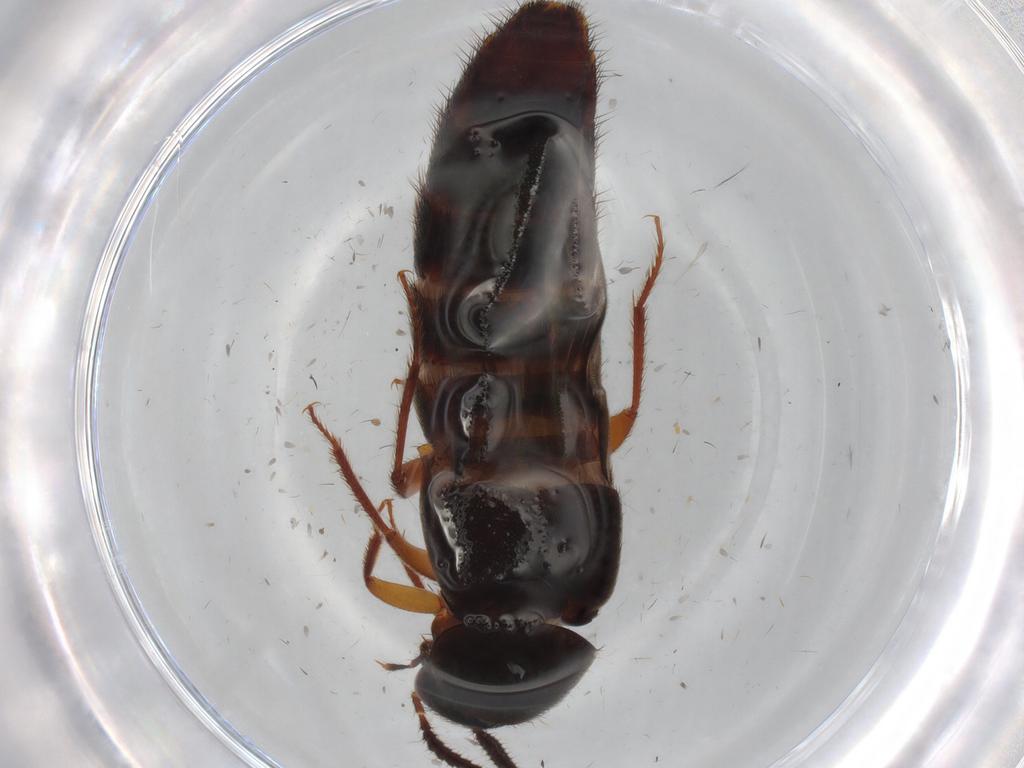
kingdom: Animalia
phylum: Arthropoda
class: Insecta
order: Coleoptera
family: Staphylinidae
